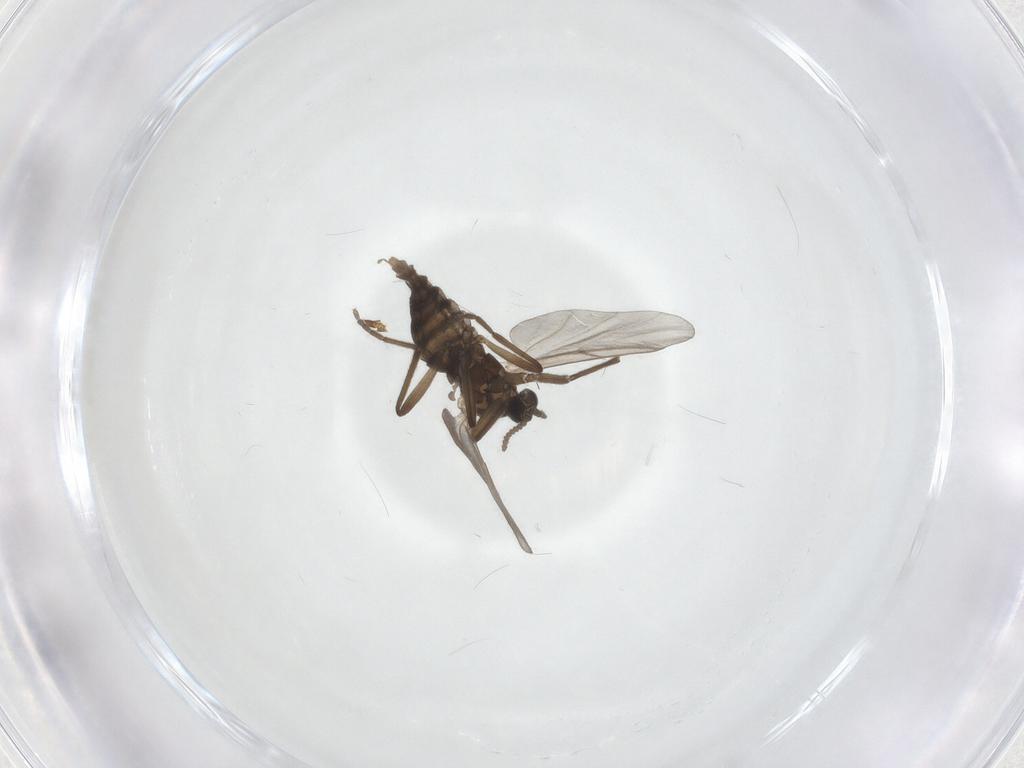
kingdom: Animalia
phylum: Arthropoda
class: Insecta
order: Diptera
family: Cecidomyiidae
